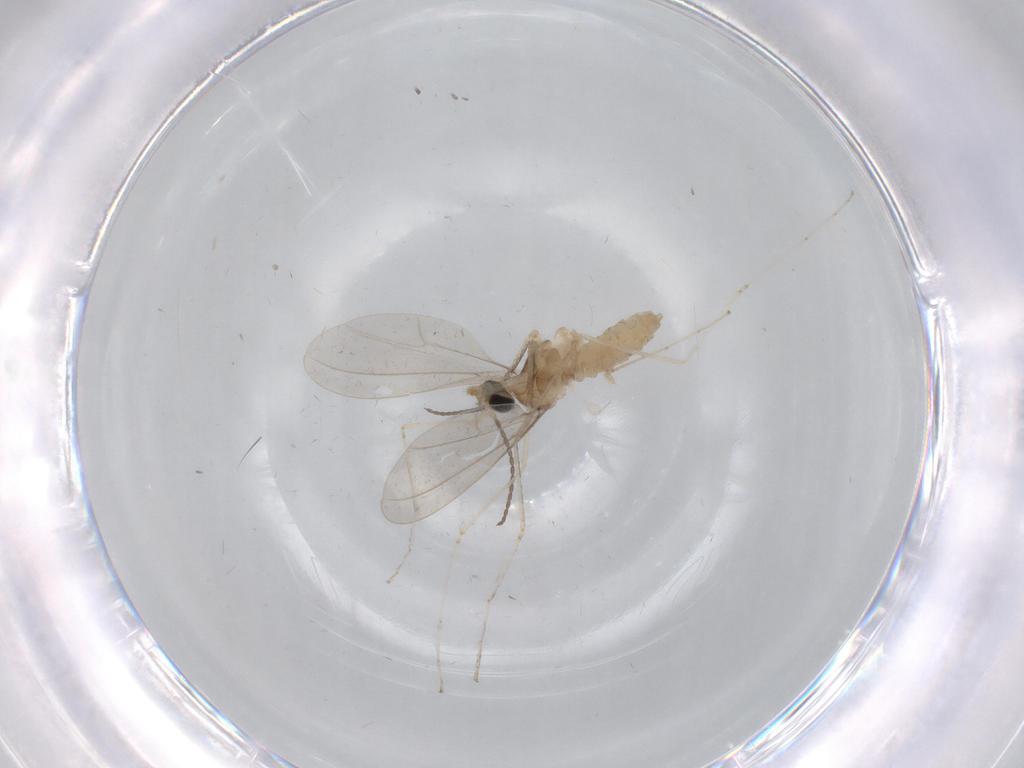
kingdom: Animalia
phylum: Arthropoda
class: Insecta
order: Diptera
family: Cecidomyiidae
